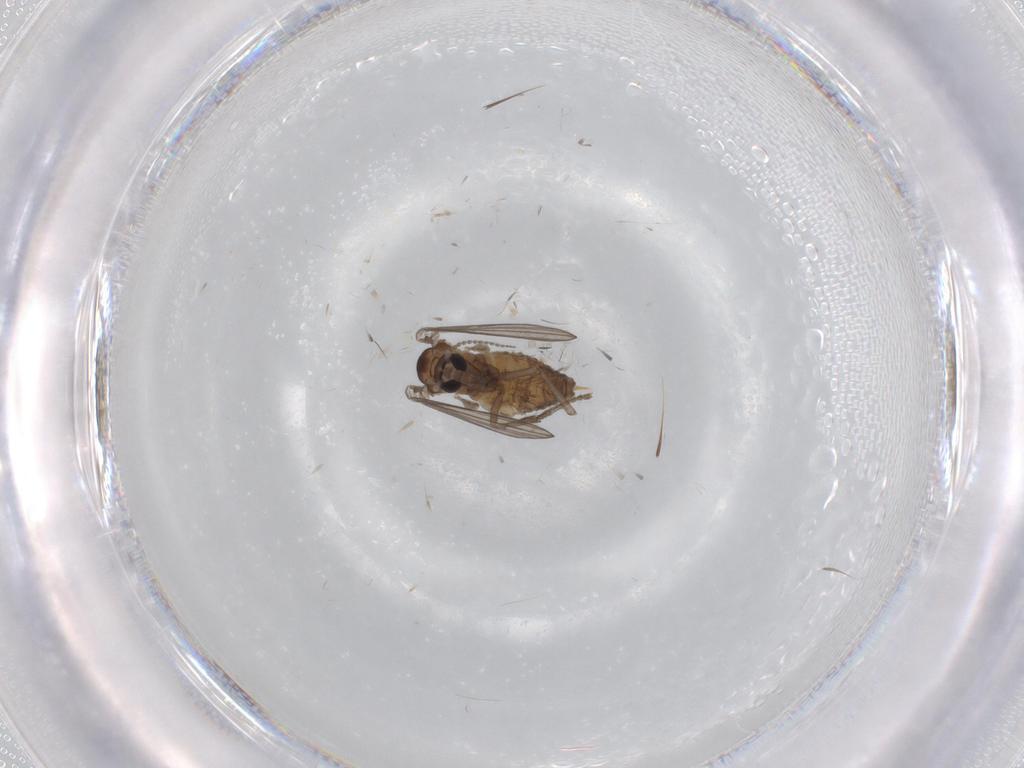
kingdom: Animalia
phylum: Arthropoda
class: Insecta
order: Diptera
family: Psychodidae
